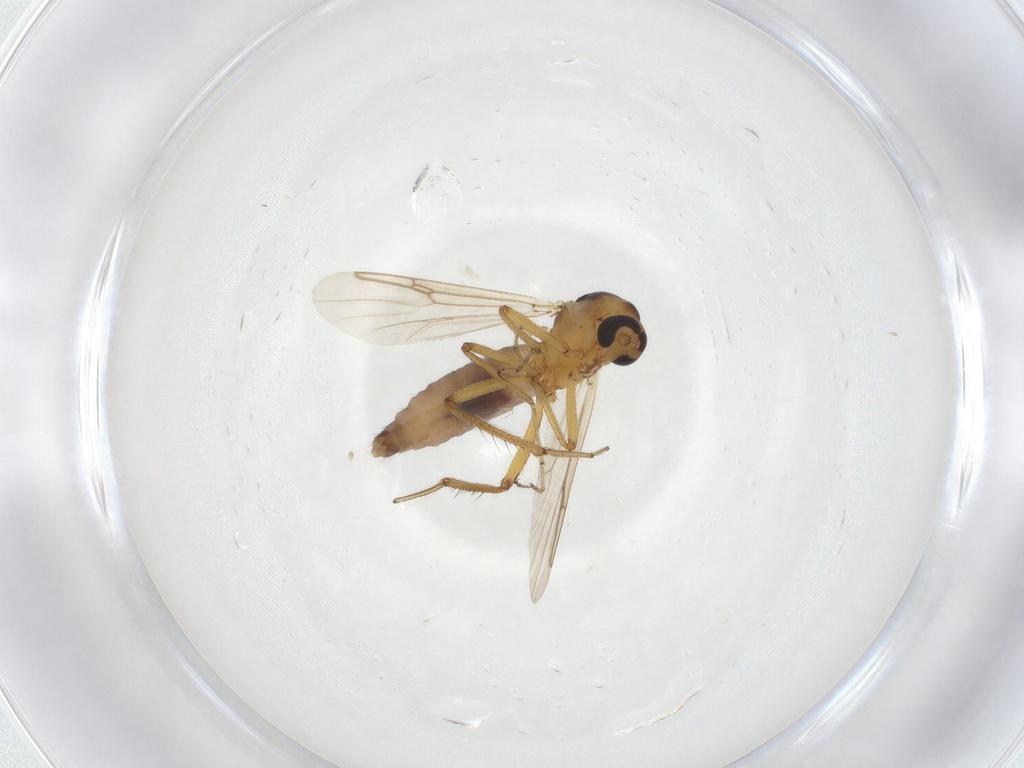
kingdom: Animalia
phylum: Arthropoda
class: Insecta
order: Diptera
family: Ceratopogonidae
